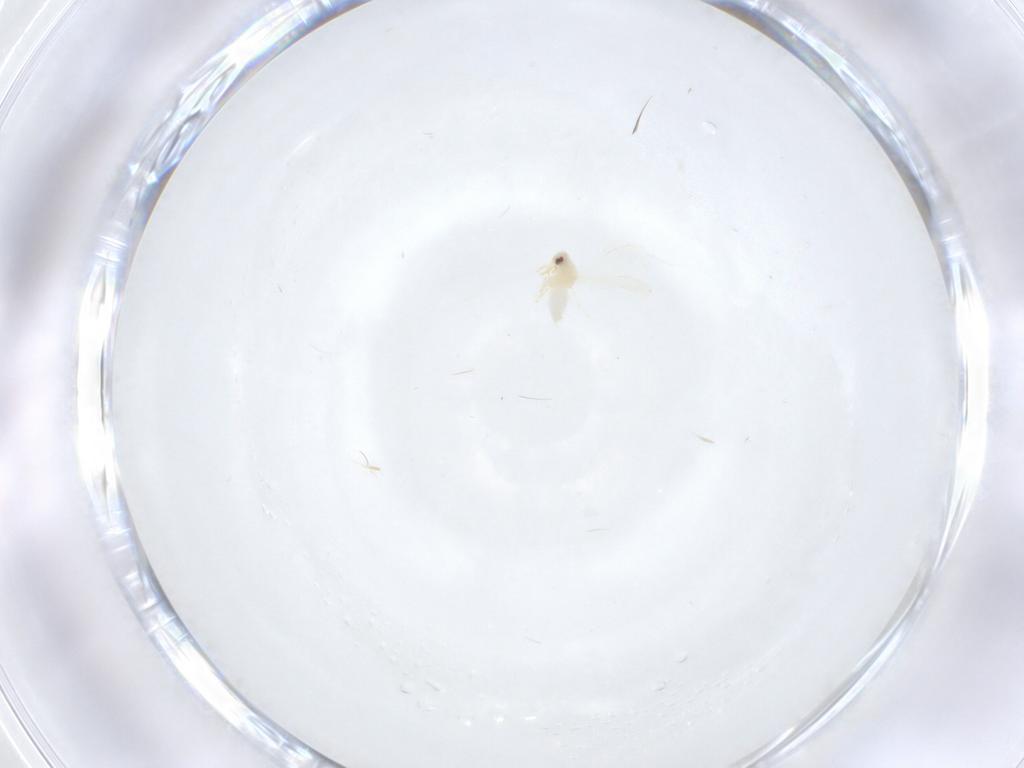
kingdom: Animalia
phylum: Arthropoda
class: Insecta
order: Hemiptera
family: Aleyrodidae
